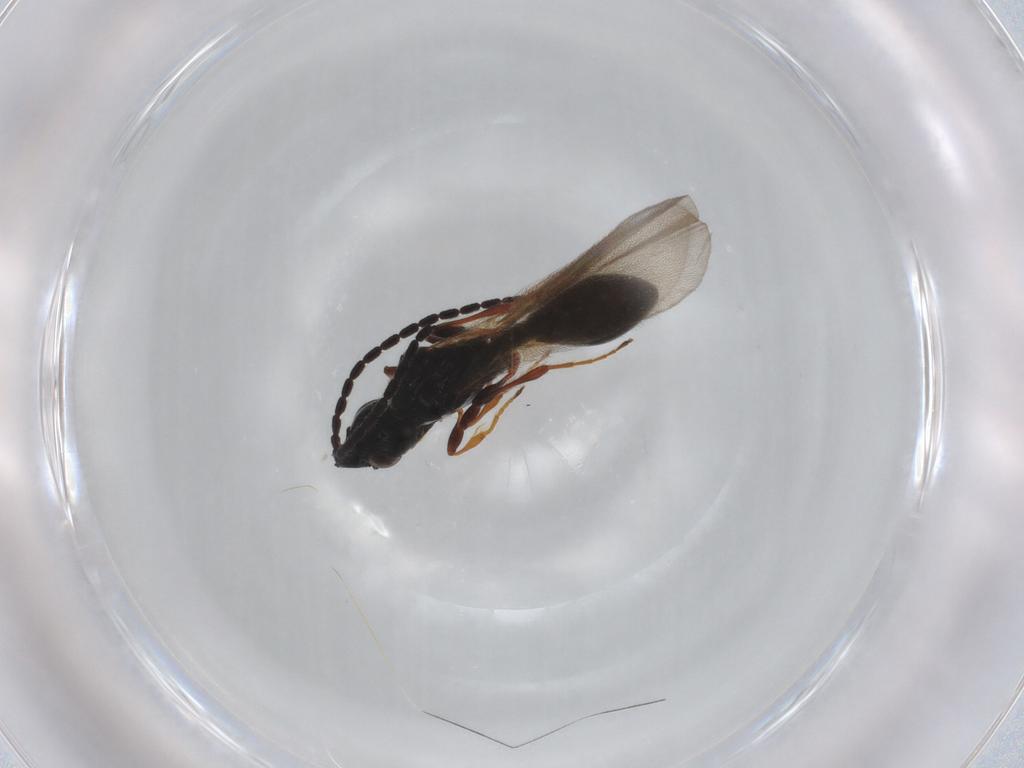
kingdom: Animalia
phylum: Arthropoda
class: Insecta
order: Hymenoptera
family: Diapriidae
